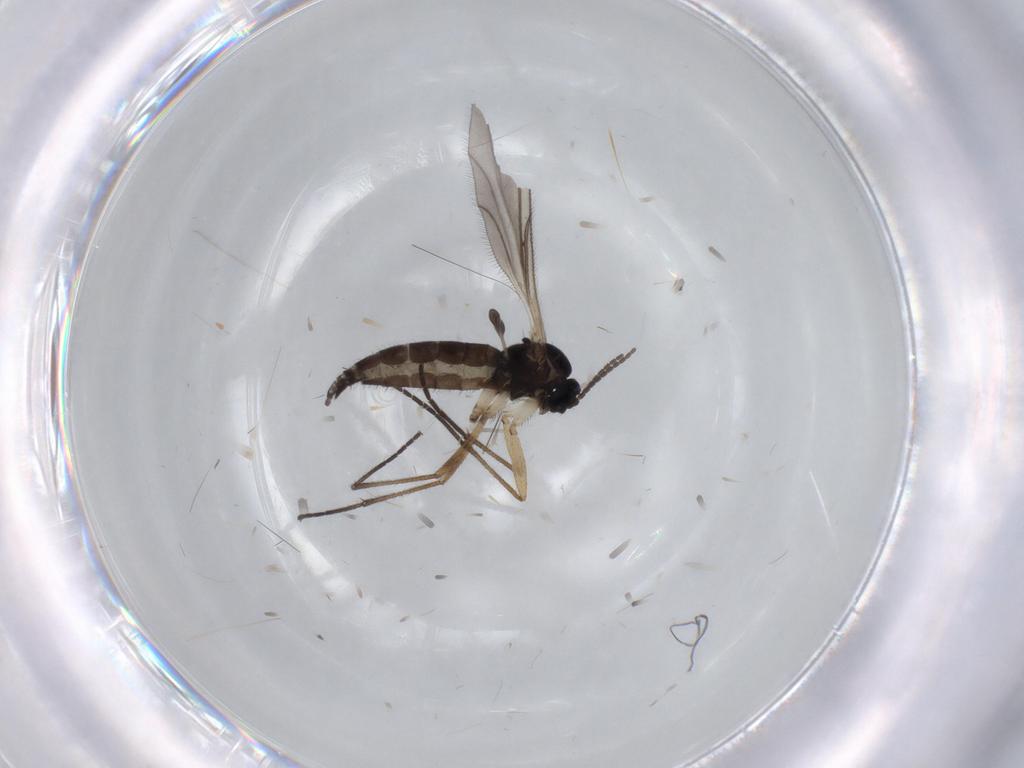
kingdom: Animalia
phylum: Arthropoda
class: Insecta
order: Diptera
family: Sciaridae
